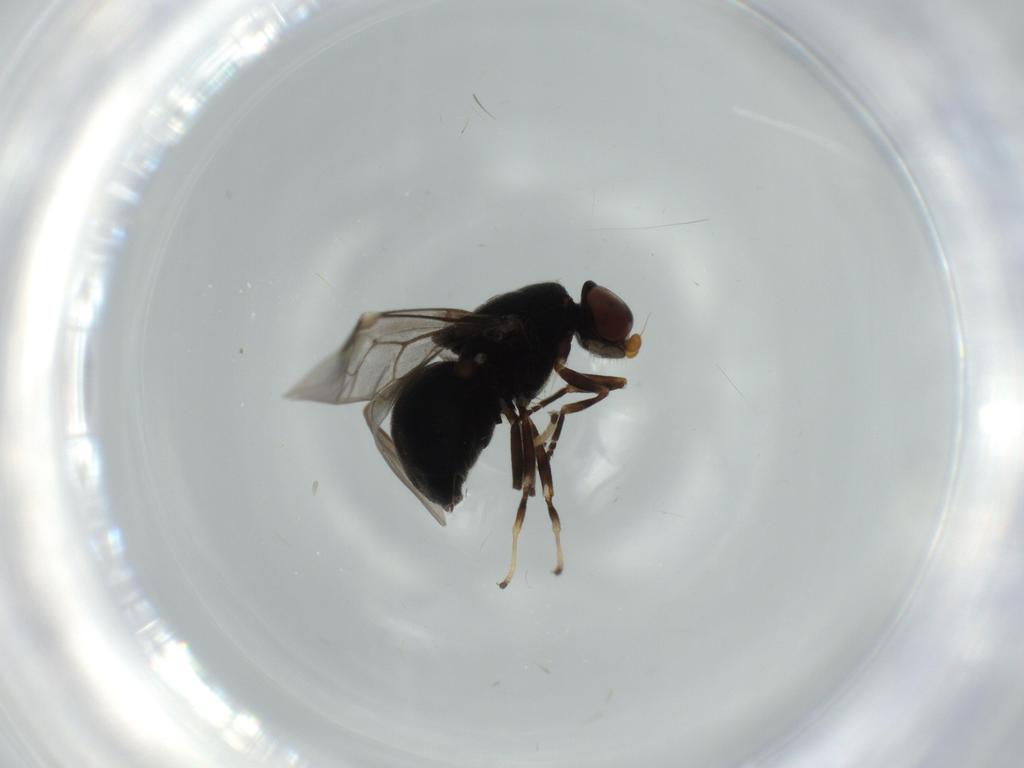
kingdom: Animalia
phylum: Arthropoda
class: Insecta
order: Diptera
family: Stratiomyidae
